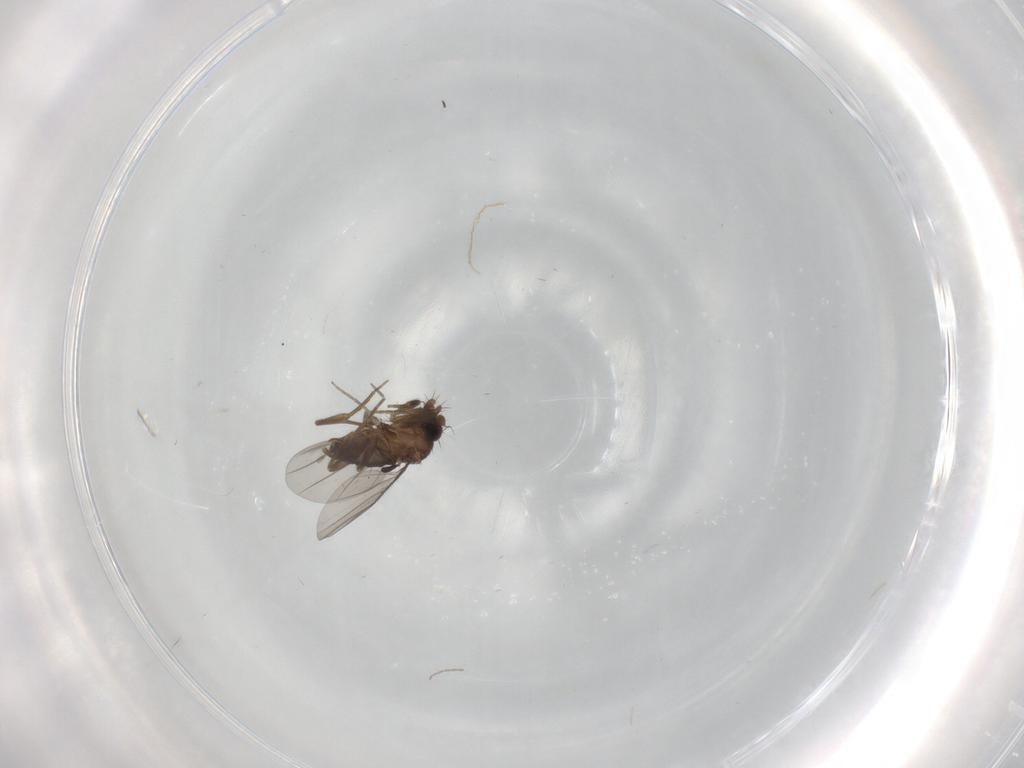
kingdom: Animalia
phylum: Arthropoda
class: Insecta
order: Diptera
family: Cecidomyiidae
